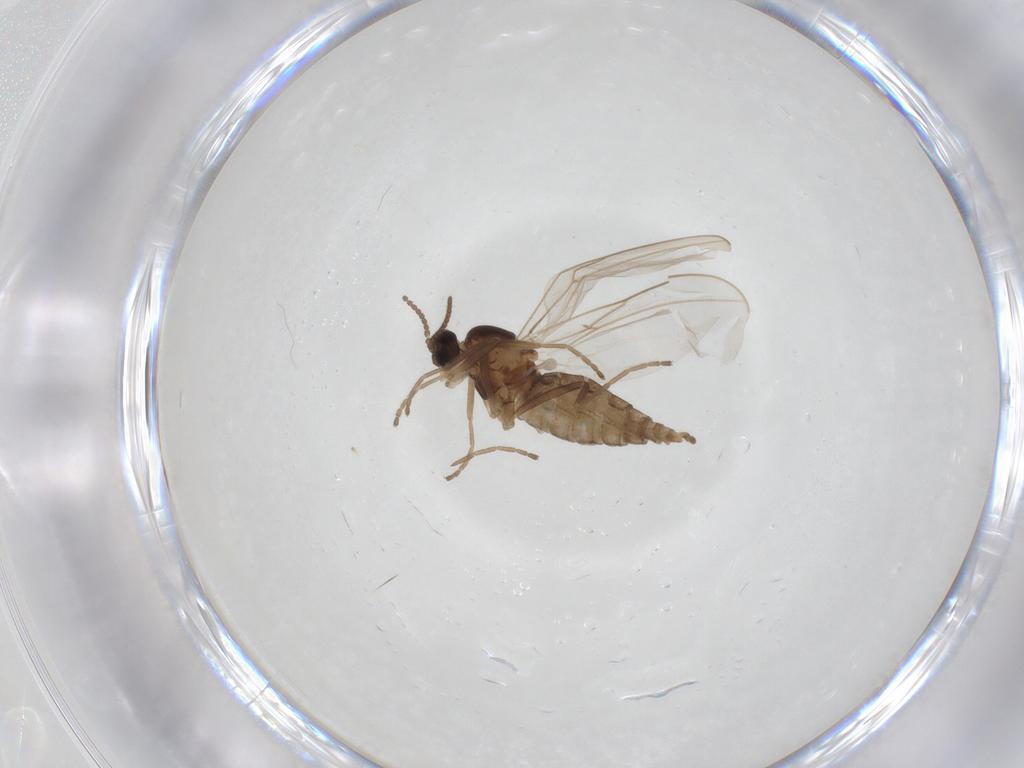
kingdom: Animalia
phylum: Arthropoda
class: Insecta
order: Diptera
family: Cecidomyiidae
